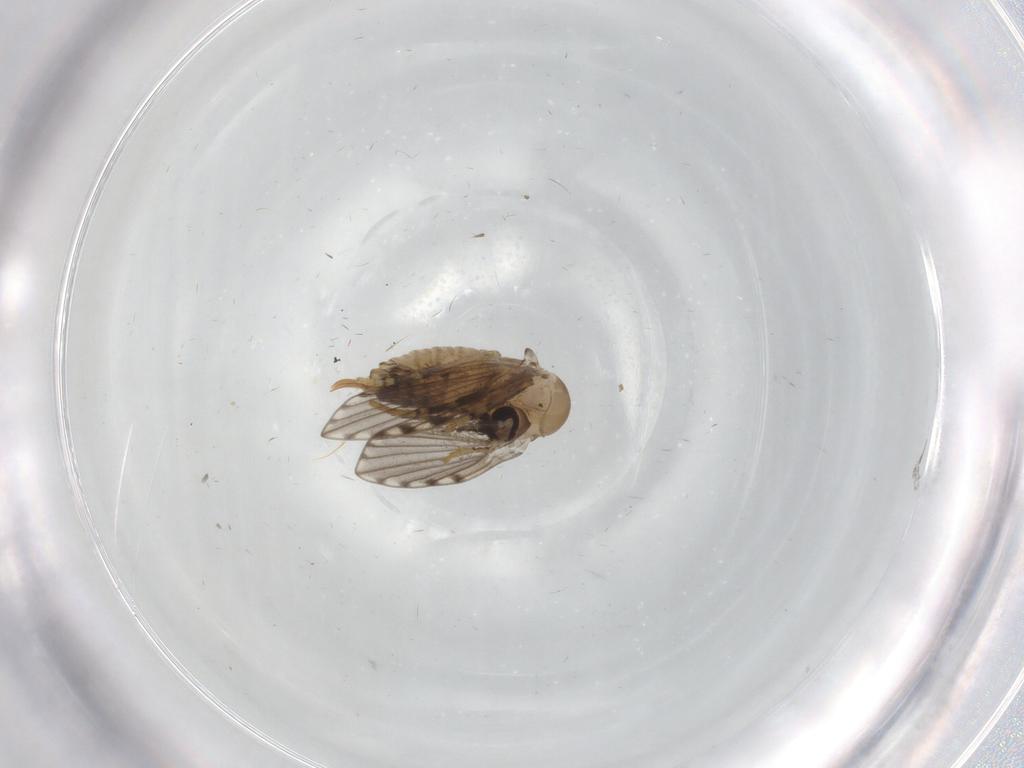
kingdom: Animalia
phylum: Arthropoda
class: Insecta
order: Diptera
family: Psychodidae
